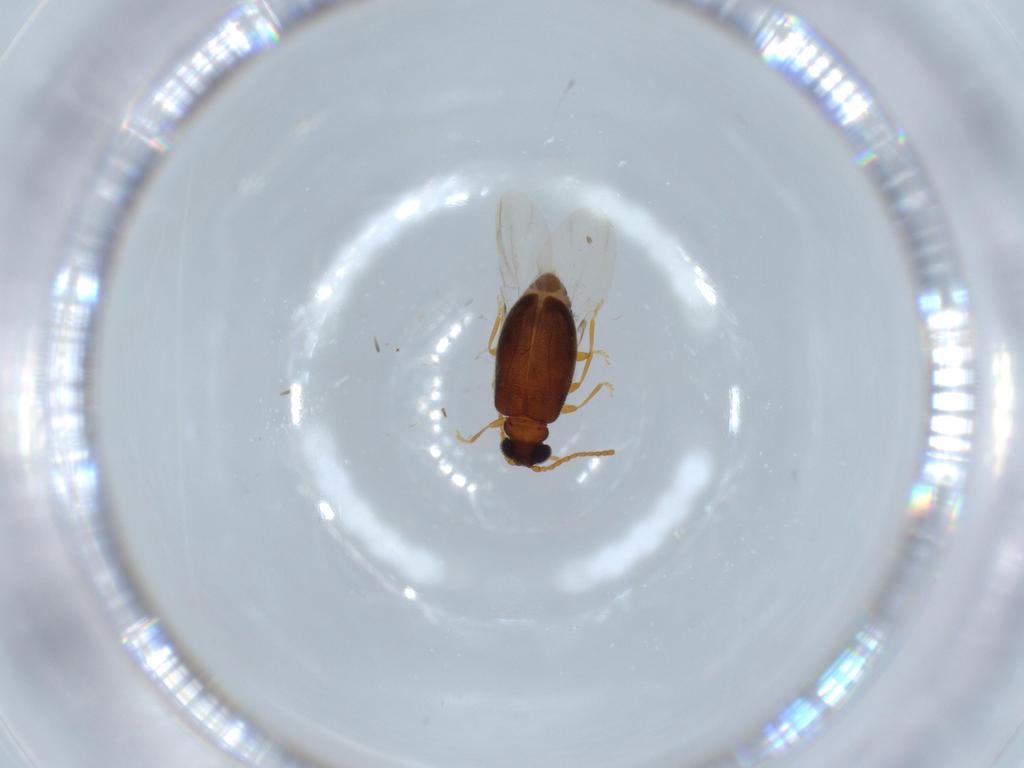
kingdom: Animalia
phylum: Arthropoda
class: Insecta
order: Coleoptera
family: Aderidae
